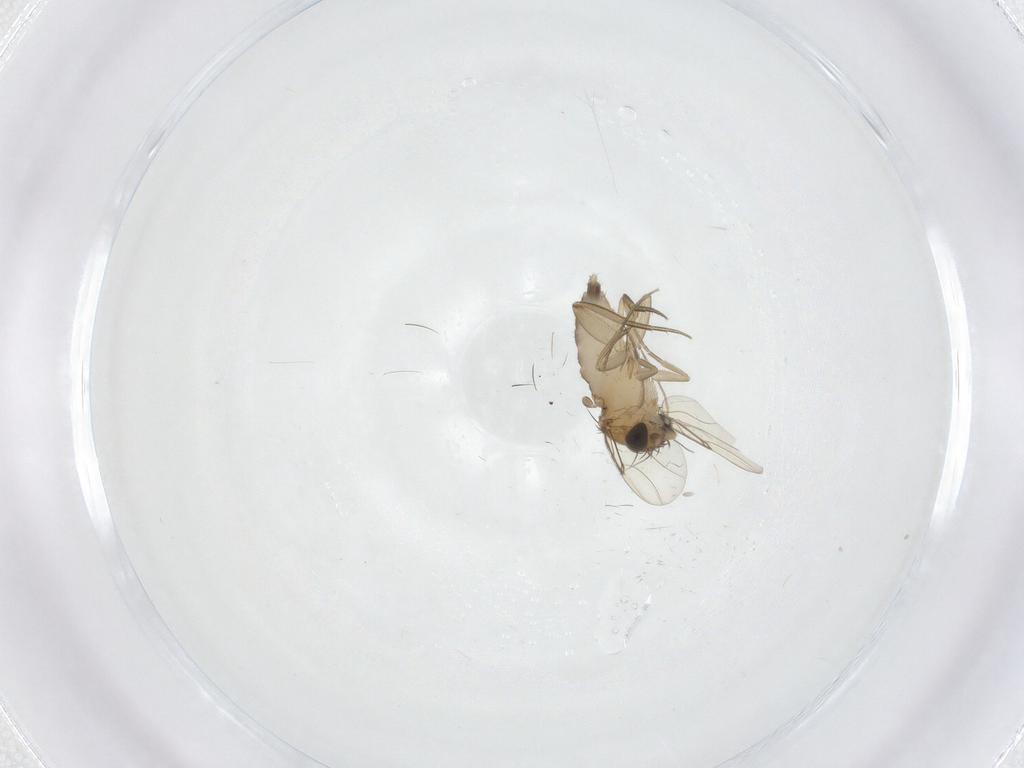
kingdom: Animalia
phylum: Arthropoda
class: Insecta
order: Diptera
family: Phoridae
